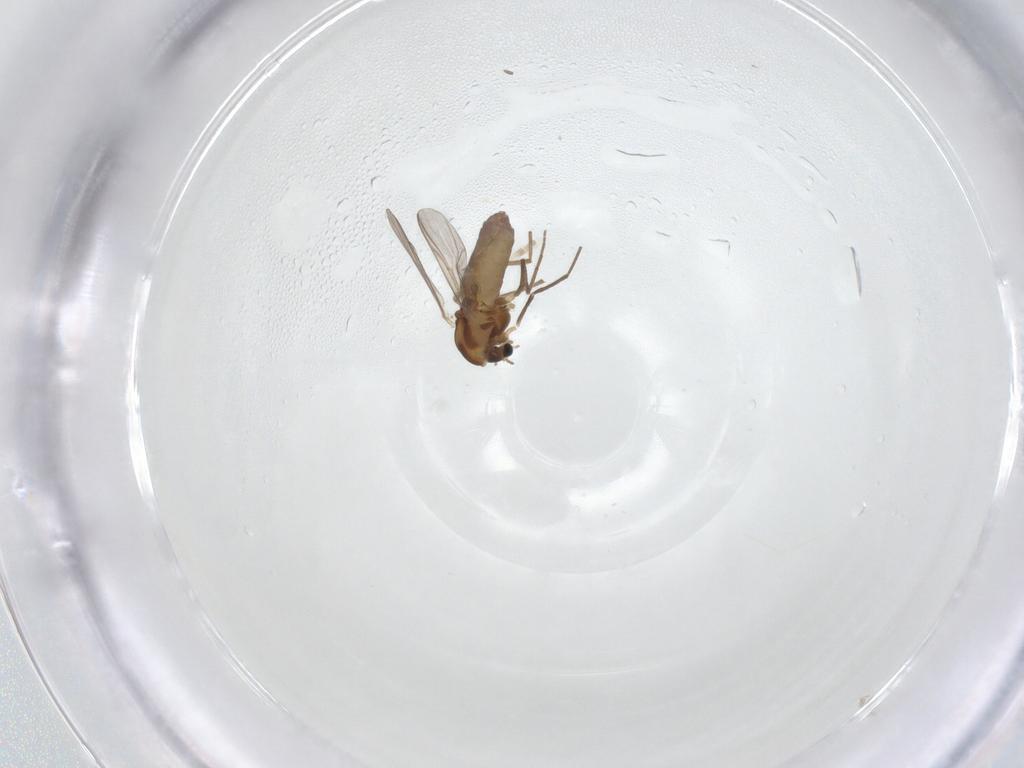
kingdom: Animalia
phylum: Arthropoda
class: Insecta
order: Diptera
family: Chironomidae
